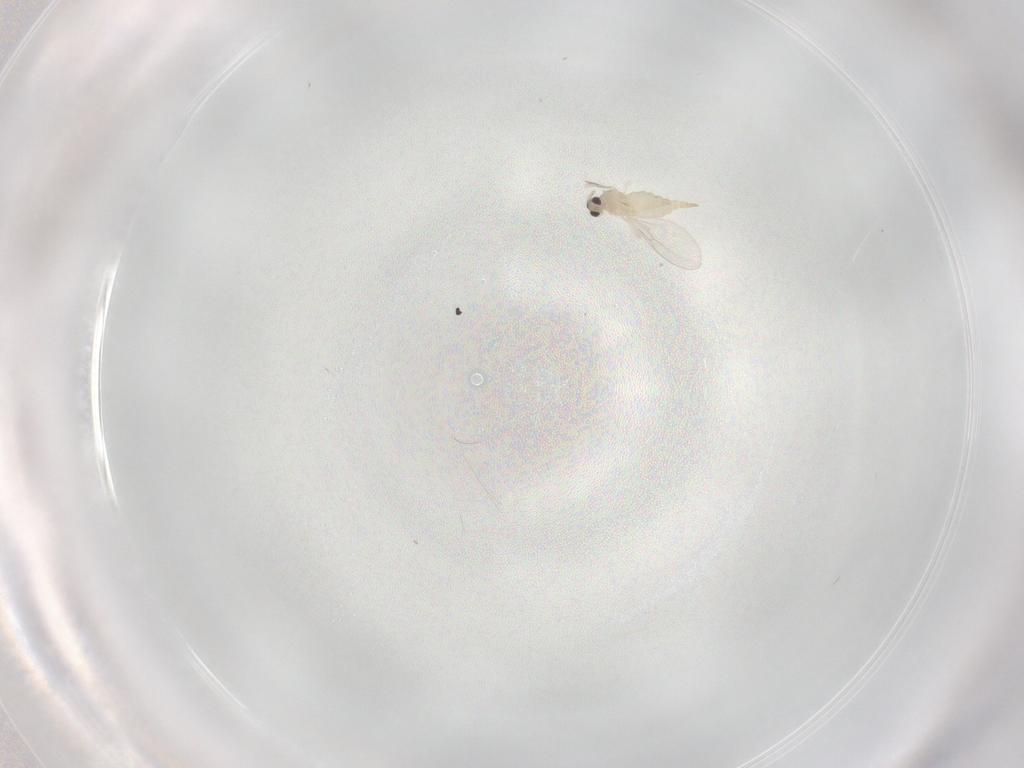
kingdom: Animalia
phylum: Arthropoda
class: Insecta
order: Diptera
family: Cecidomyiidae
